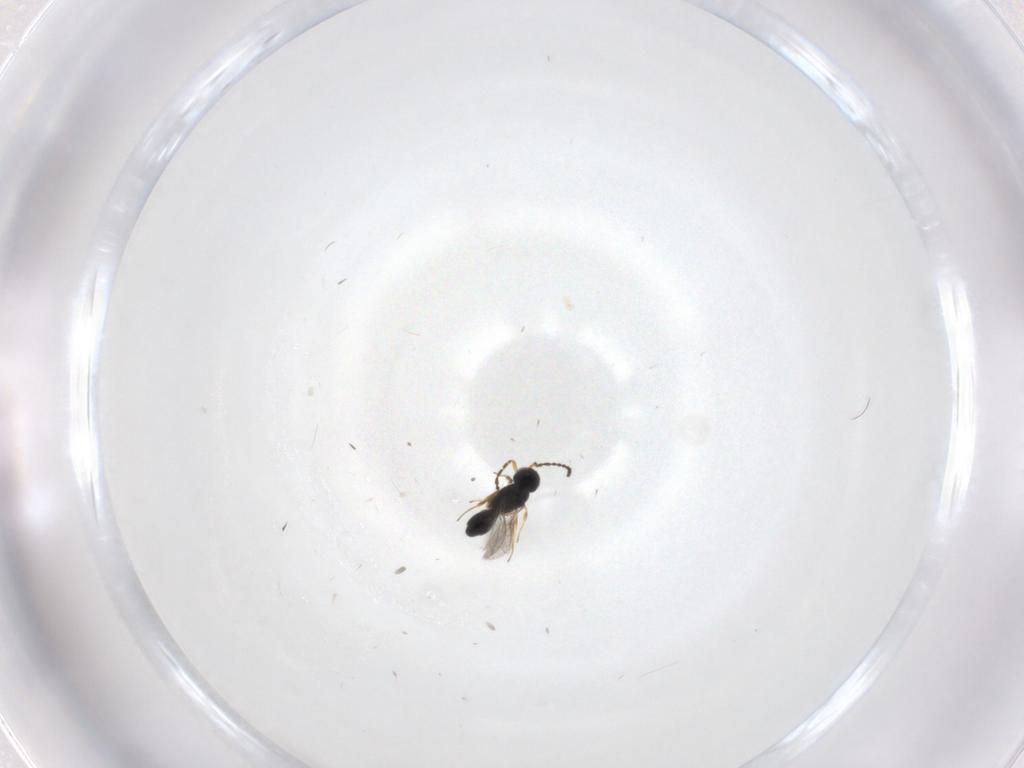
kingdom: Animalia
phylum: Arthropoda
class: Insecta
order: Hymenoptera
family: Scelionidae
